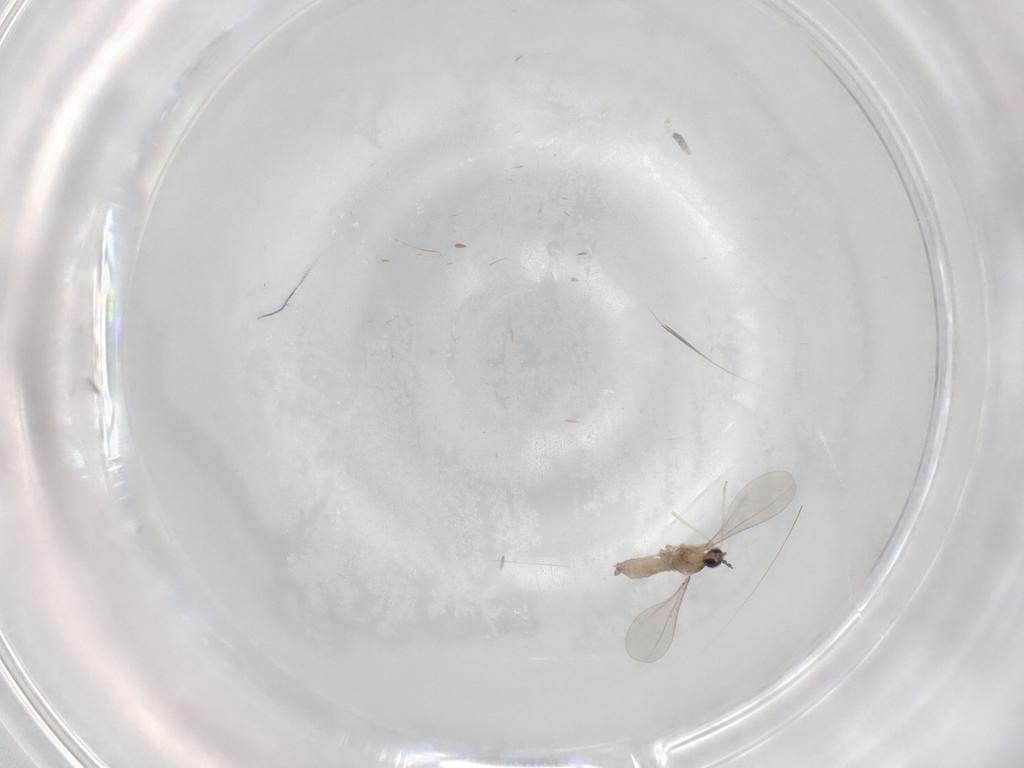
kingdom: Animalia
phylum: Arthropoda
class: Insecta
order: Diptera
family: Cecidomyiidae
